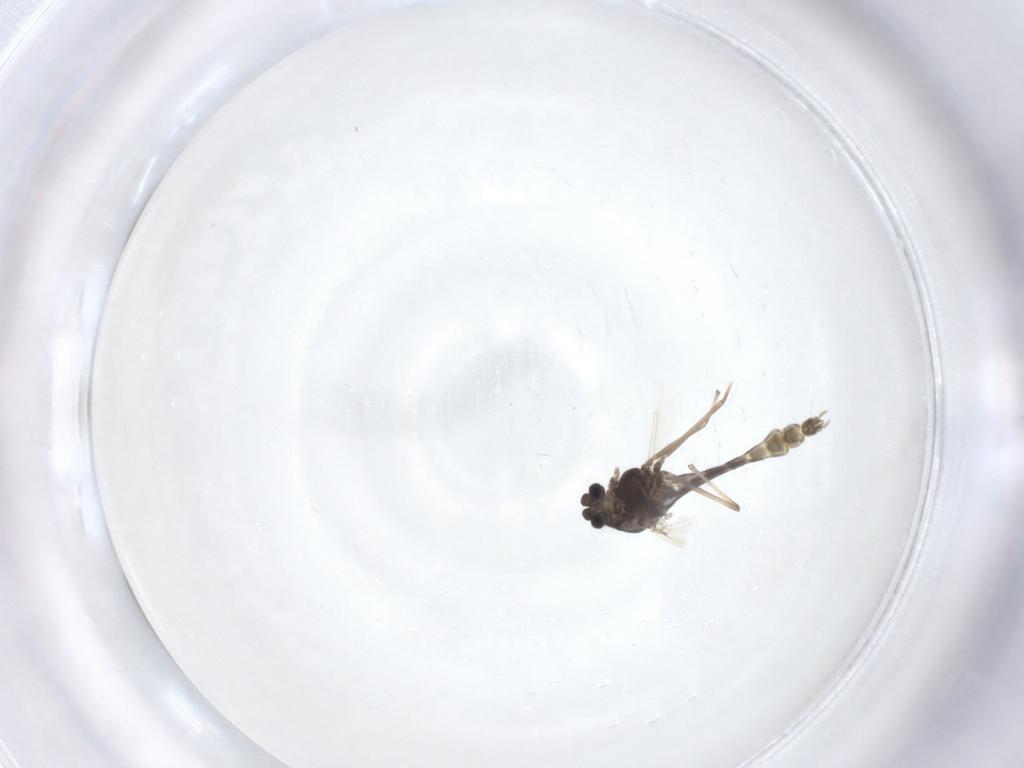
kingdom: Animalia
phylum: Arthropoda
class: Insecta
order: Diptera
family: Chironomidae
